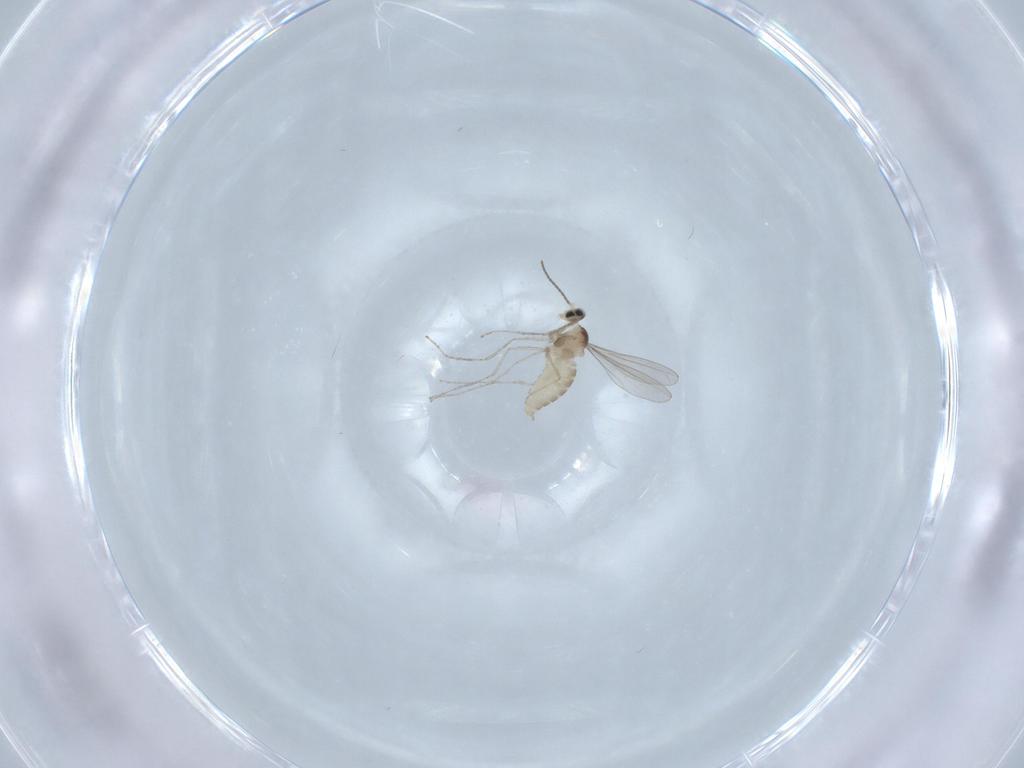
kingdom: Animalia
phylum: Arthropoda
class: Insecta
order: Diptera
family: Cecidomyiidae
